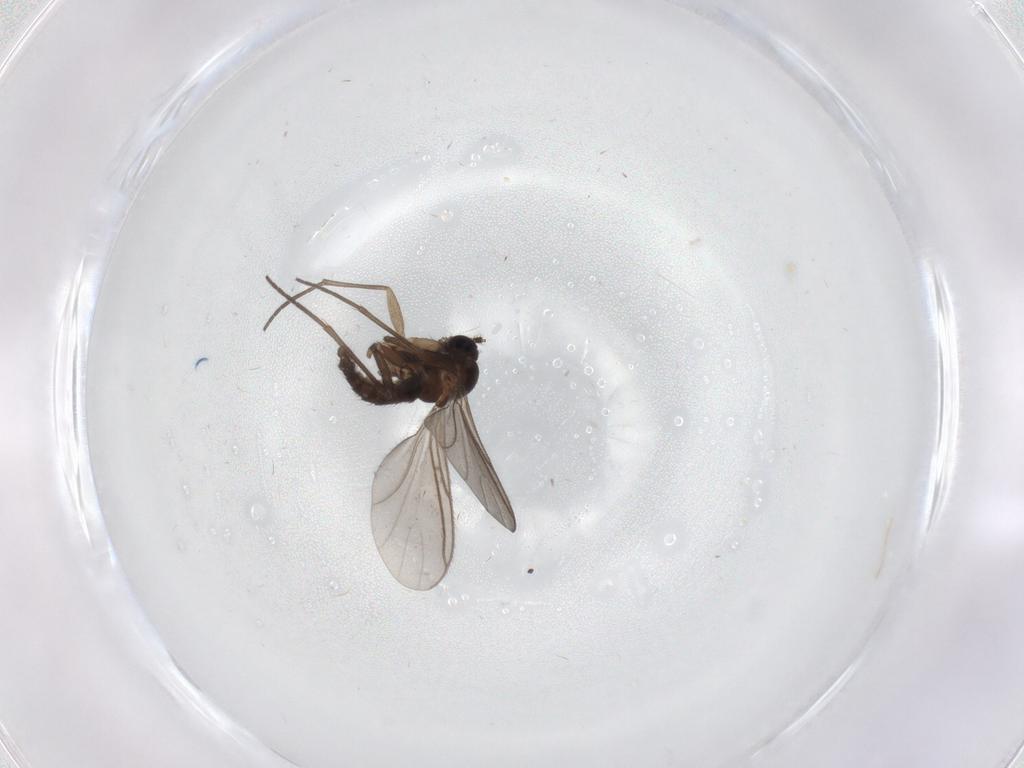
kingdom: Animalia
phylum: Arthropoda
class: Insecta
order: Diptera
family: Sciaridae
